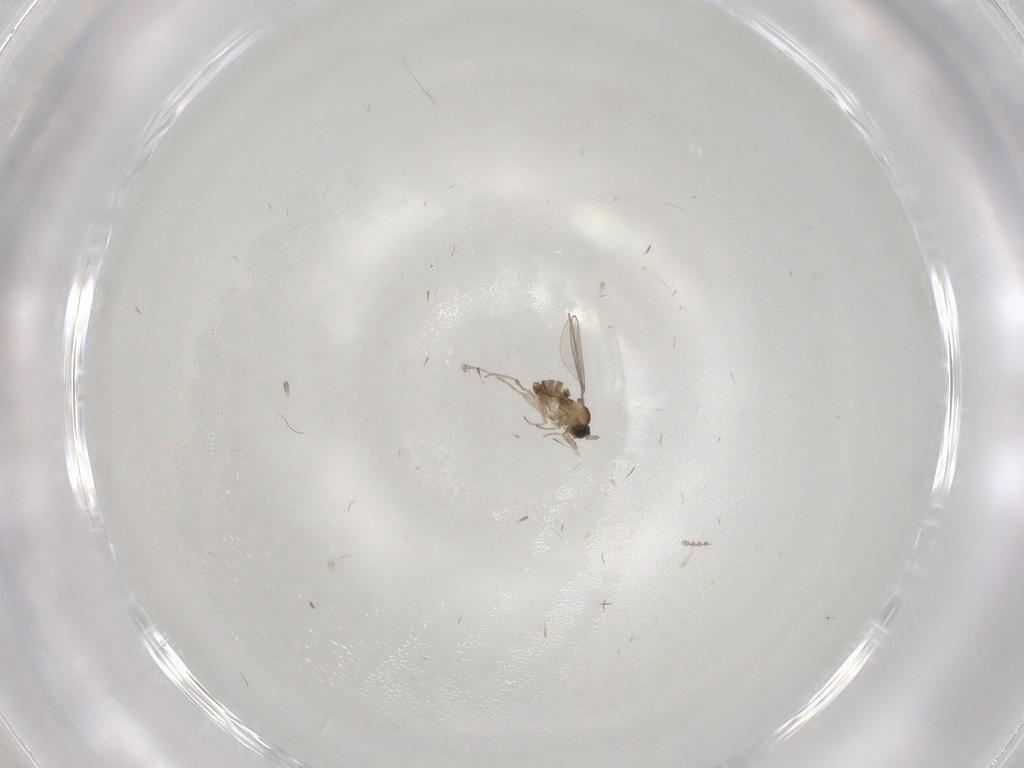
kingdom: Animalia
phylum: Arthropoda
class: Insecta
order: Diptera
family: Cecidomyiidae
